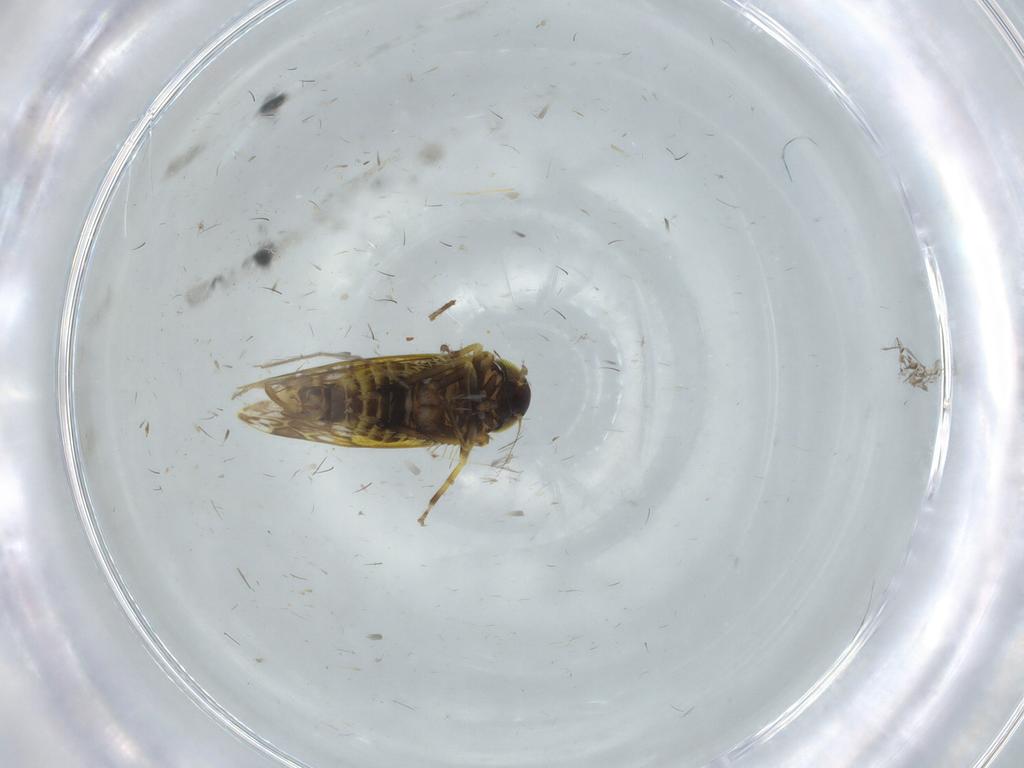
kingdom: Animalia
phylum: Arthropoda
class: Insecta
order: Hemiptera
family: Cicadellidae
